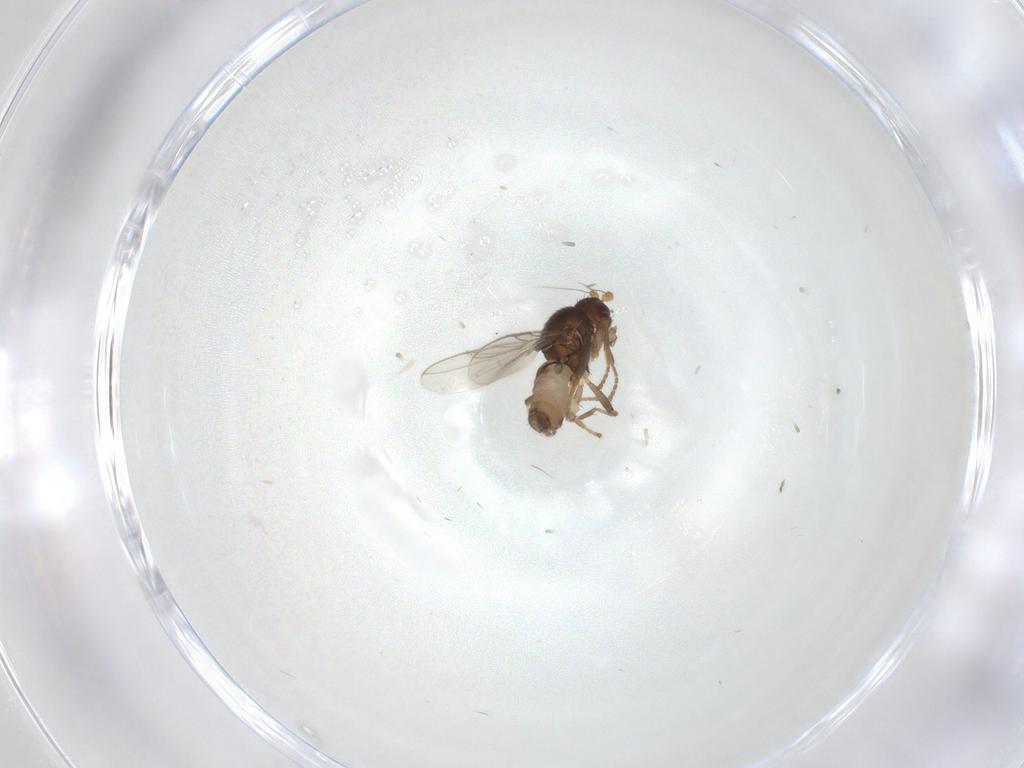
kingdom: Animalia
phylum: Arthropoda
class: Insecta
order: Diptera
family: Sphaeroceridae
